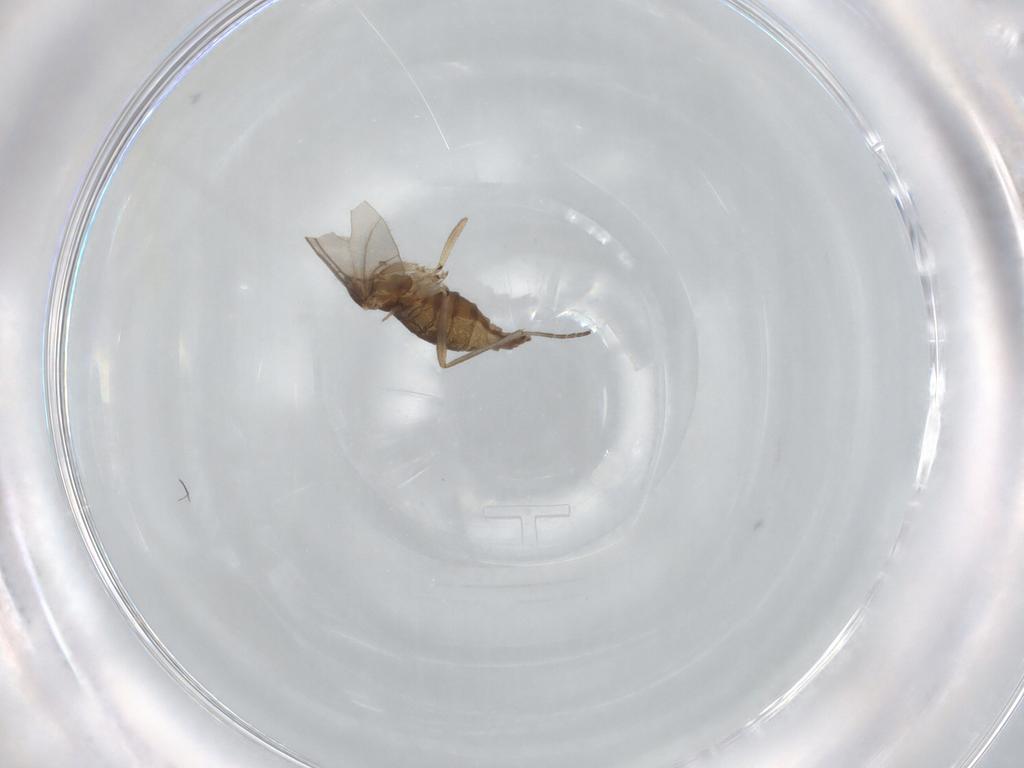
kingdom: Animalia
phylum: Arthropoda
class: Insecta
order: Diptera
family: Sciaridae
